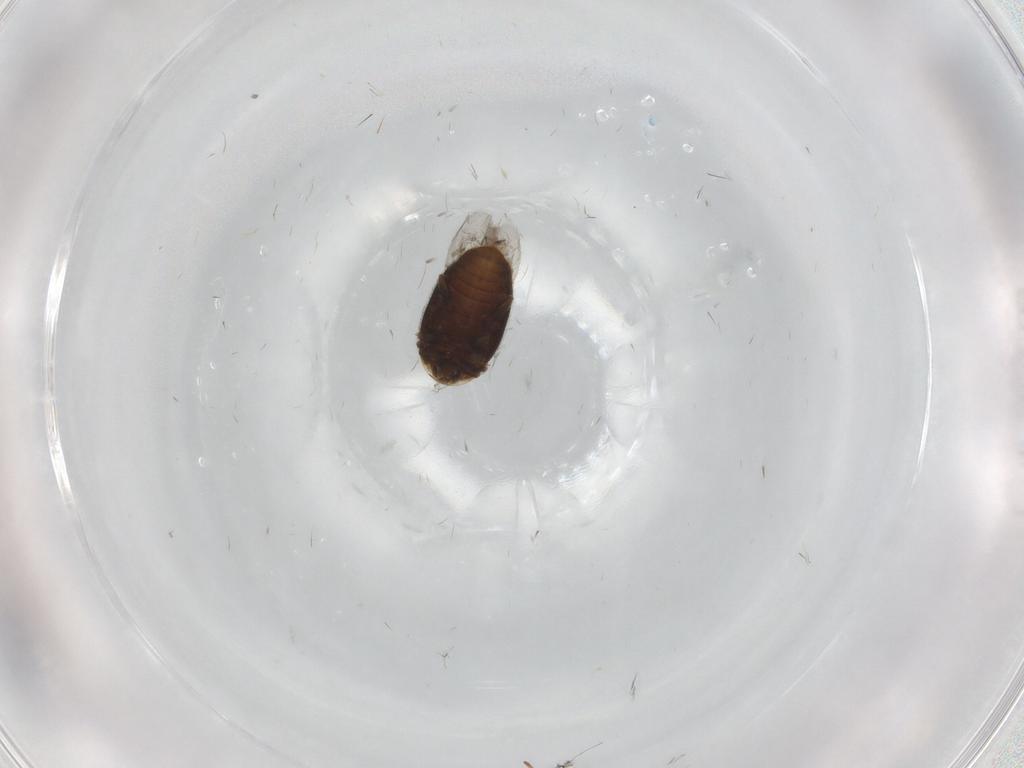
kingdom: Animalia
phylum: Arthropoda
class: Insecta
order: Coleoptera
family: Corylophidae
